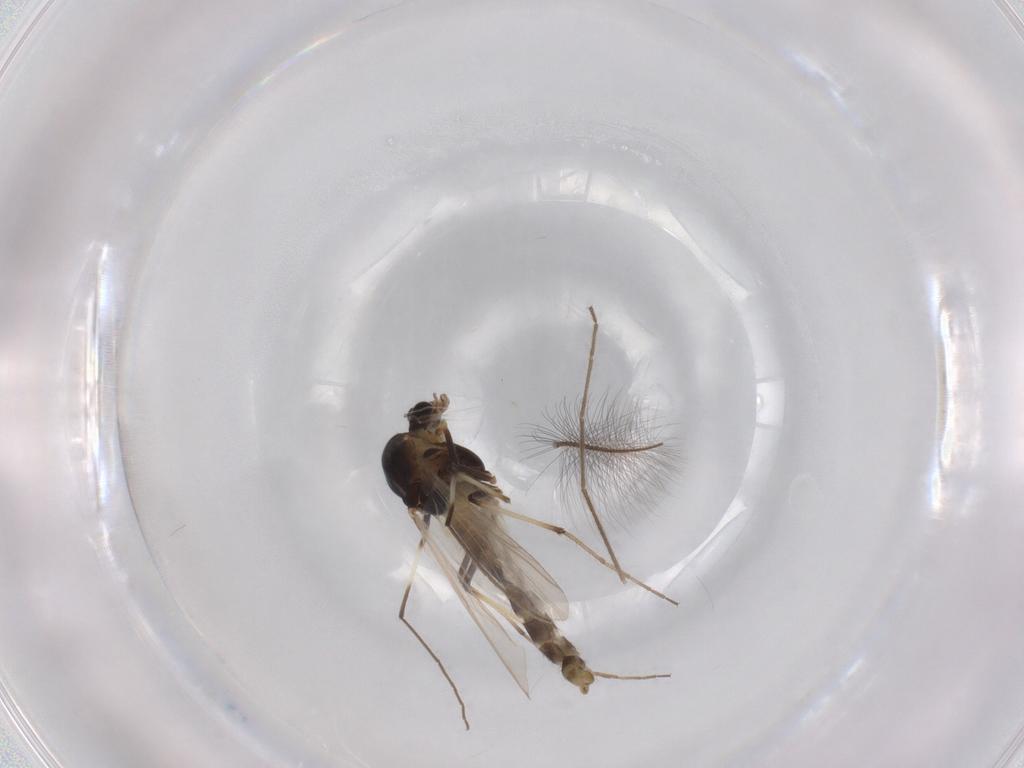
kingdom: Animalia
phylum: Arthropoda
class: Insecta
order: Diptera
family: Chironomidae
